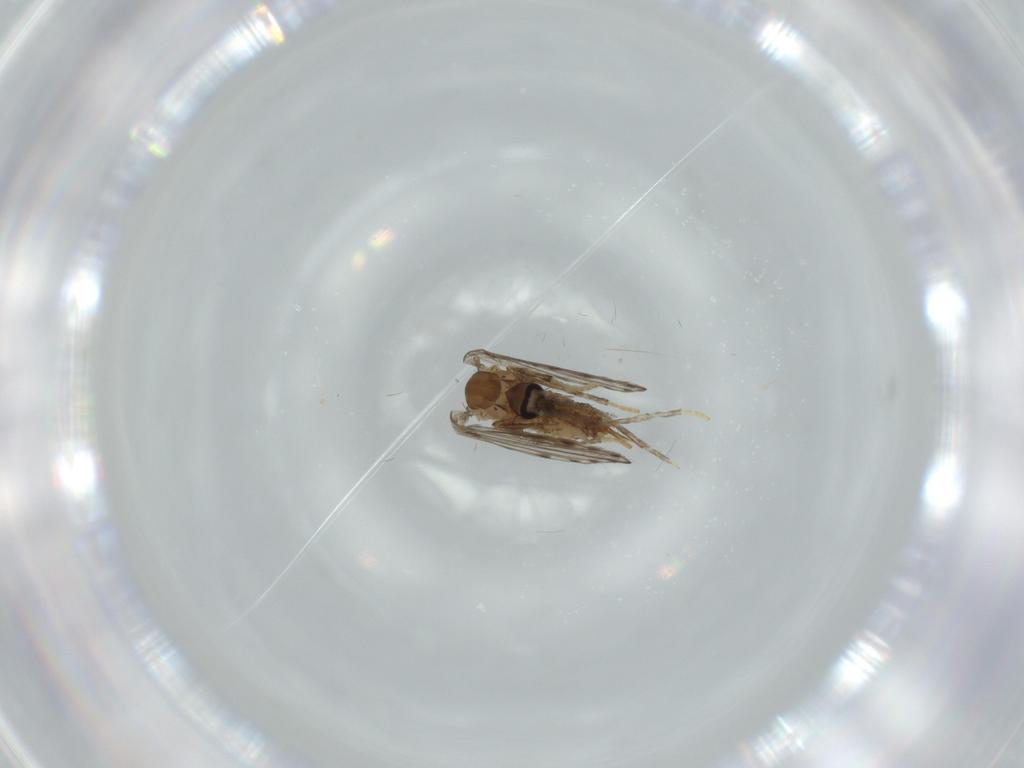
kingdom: Animalia
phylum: Arthropoda
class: Insecta
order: Diptera
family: Psychodidae
